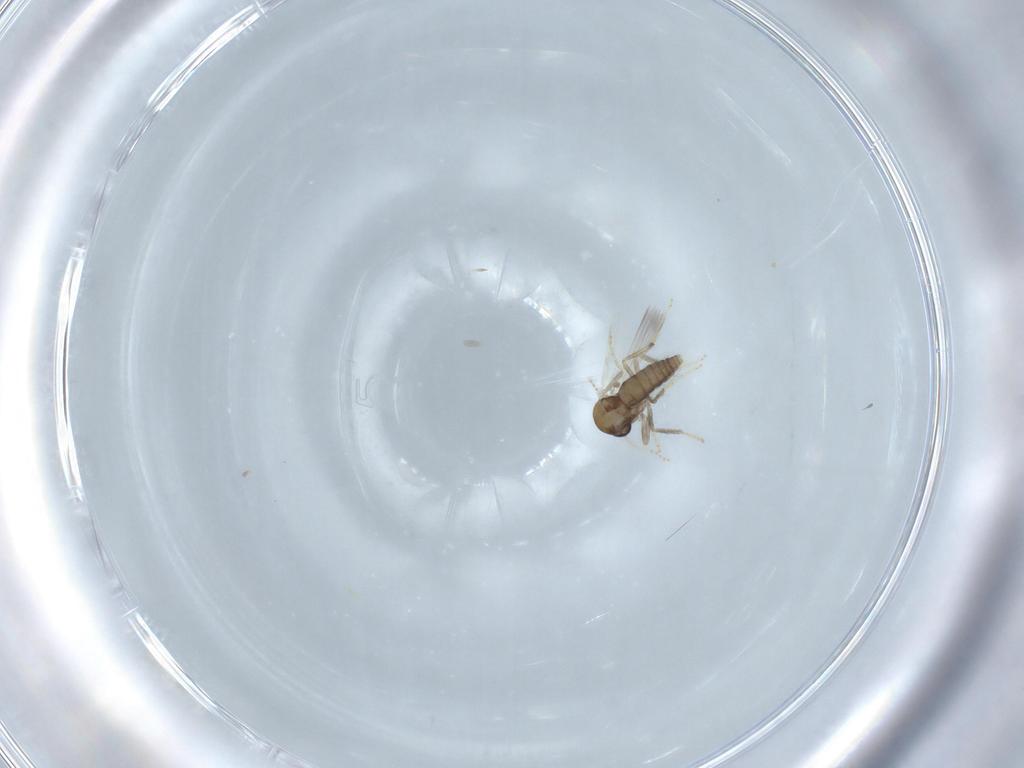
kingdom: Animalia
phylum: Arthropoda
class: Insecta
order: Diptera
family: Ceratopogonidae
